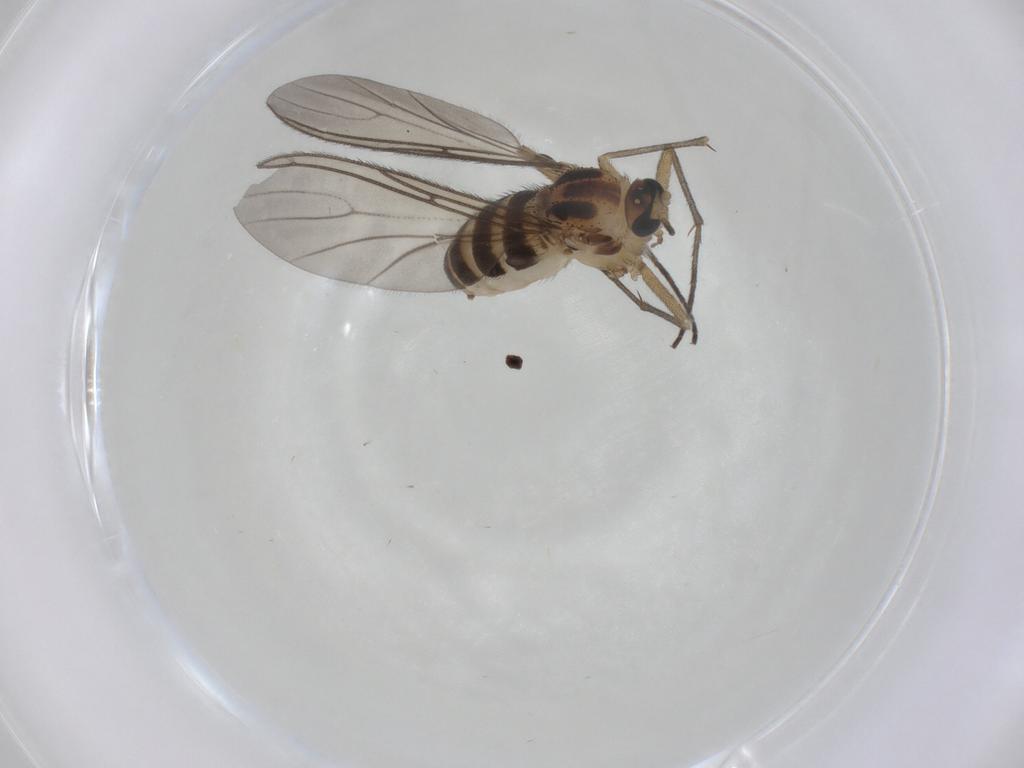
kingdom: Animalia
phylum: Arthropoda
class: Insecta
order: Diptera
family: Sciaridae
